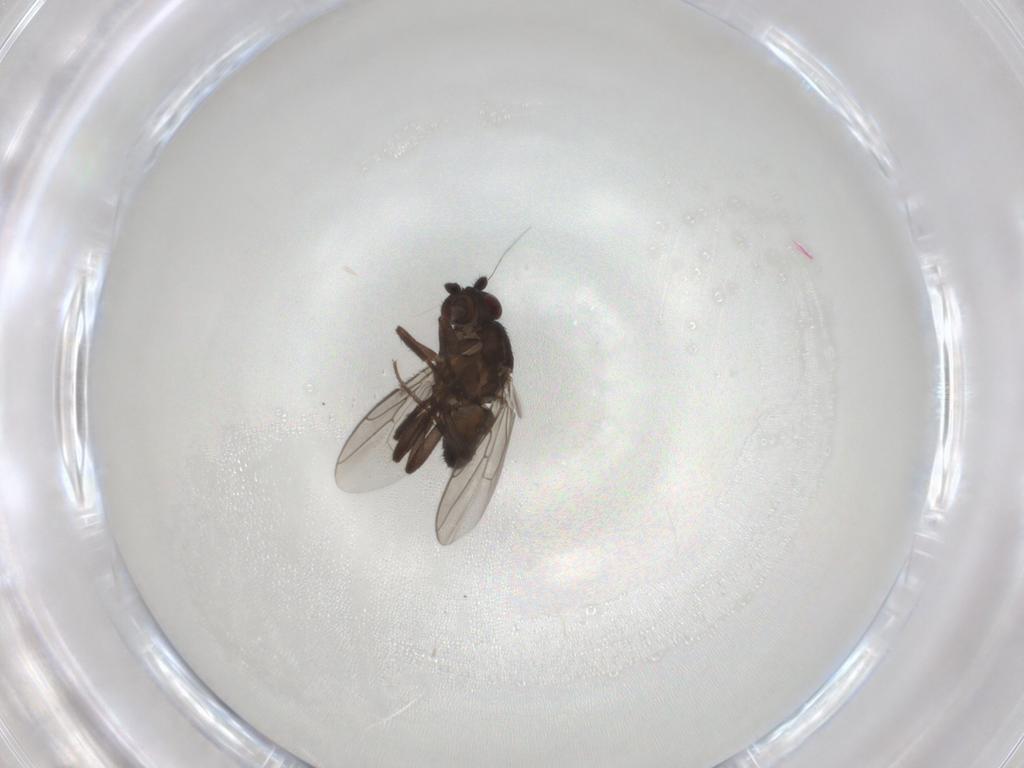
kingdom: Animalia
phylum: Arthropoda
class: Insecta
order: Diptera
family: Sphaeroceridae
